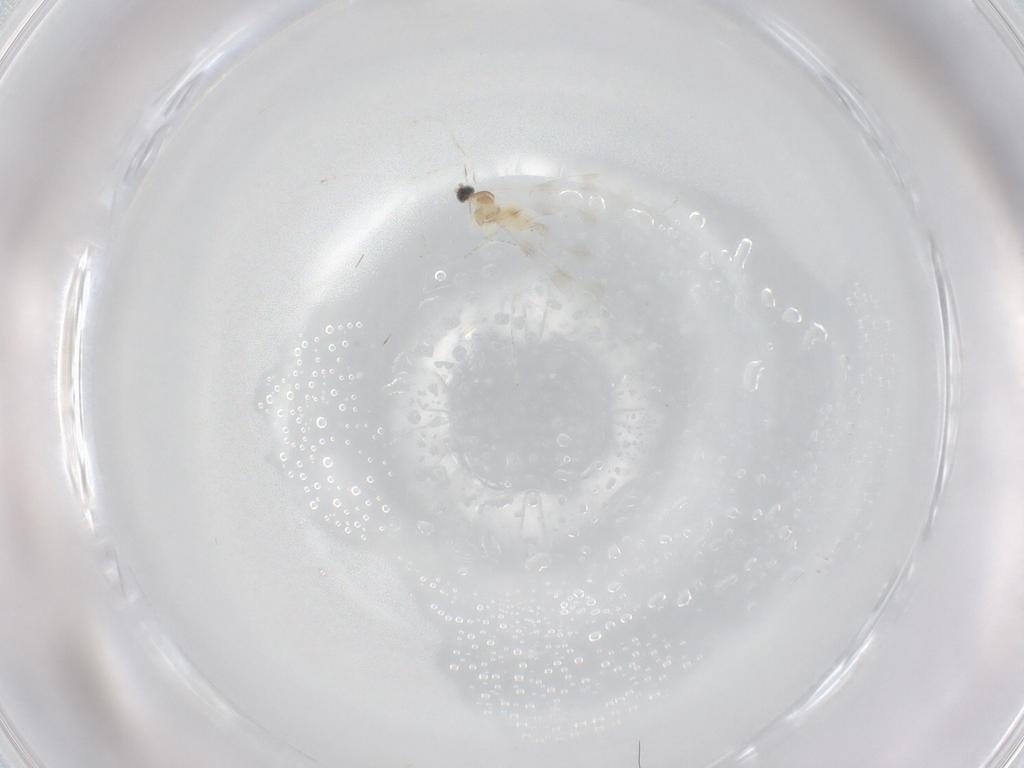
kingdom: Animalia
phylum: Arthropoda
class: Insecta
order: Diptera
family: Cecidomyiidae
